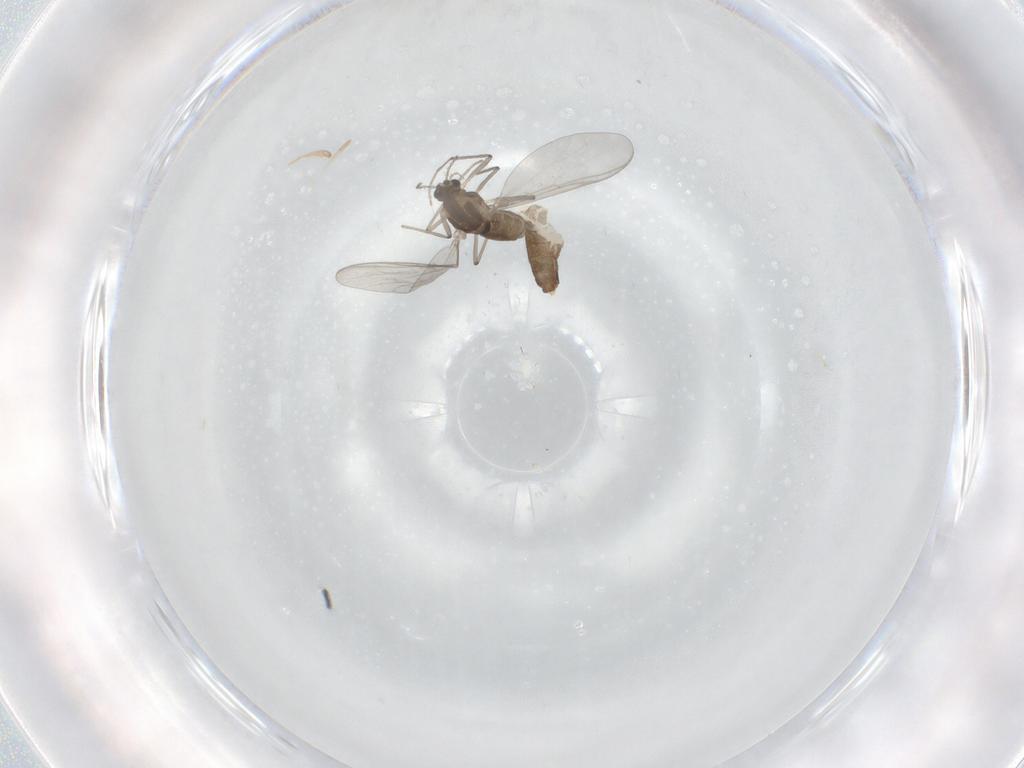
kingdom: Animalia
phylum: Arthropoda
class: Insecta
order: Diptera
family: Chironomidae
